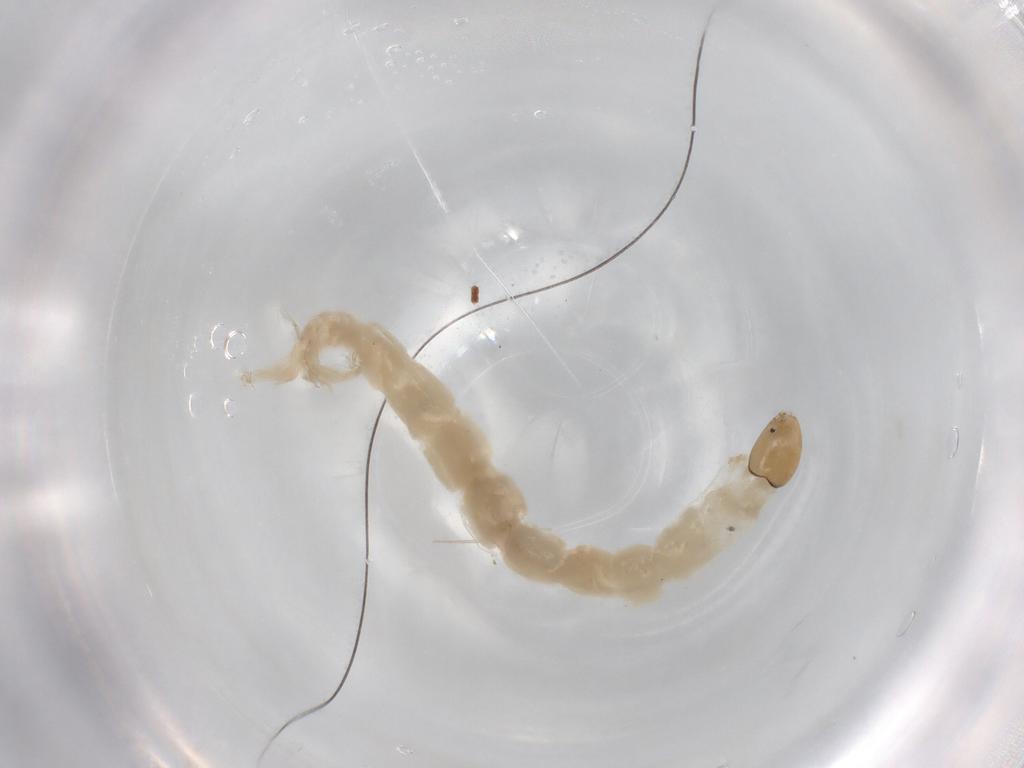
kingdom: Animalia
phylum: Arthropoda
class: Insecta
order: Diptera
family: Chironomidae
